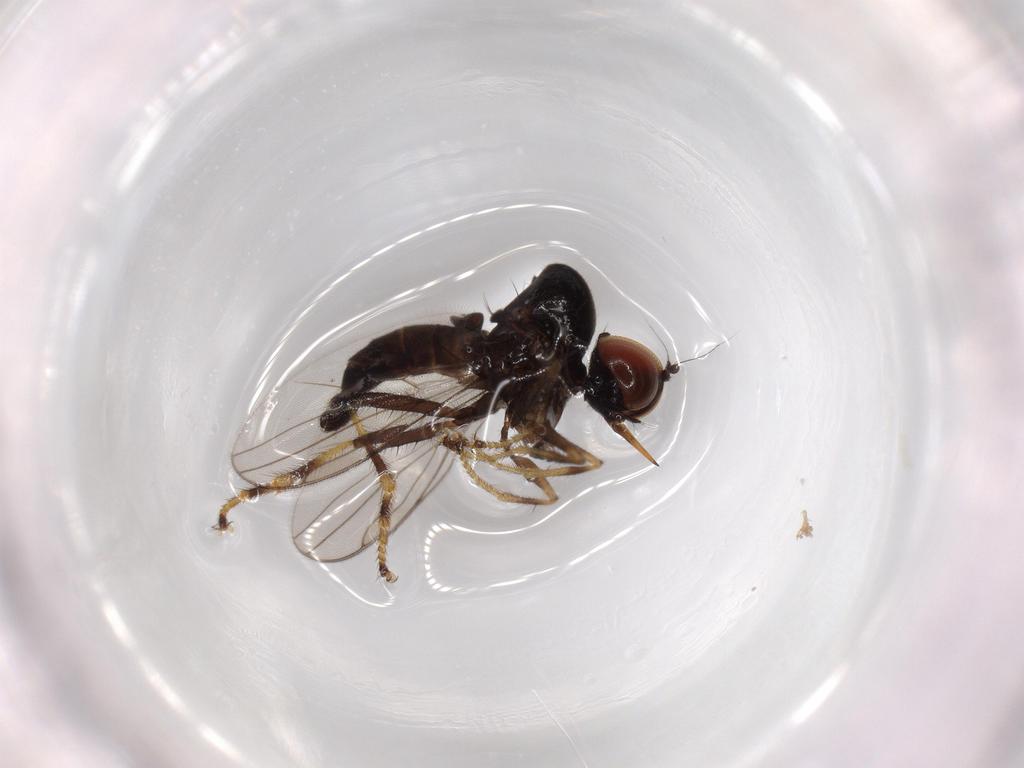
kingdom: Animalia
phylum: Arthropoda
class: Insecta
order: Diptera
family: Hybotidae
